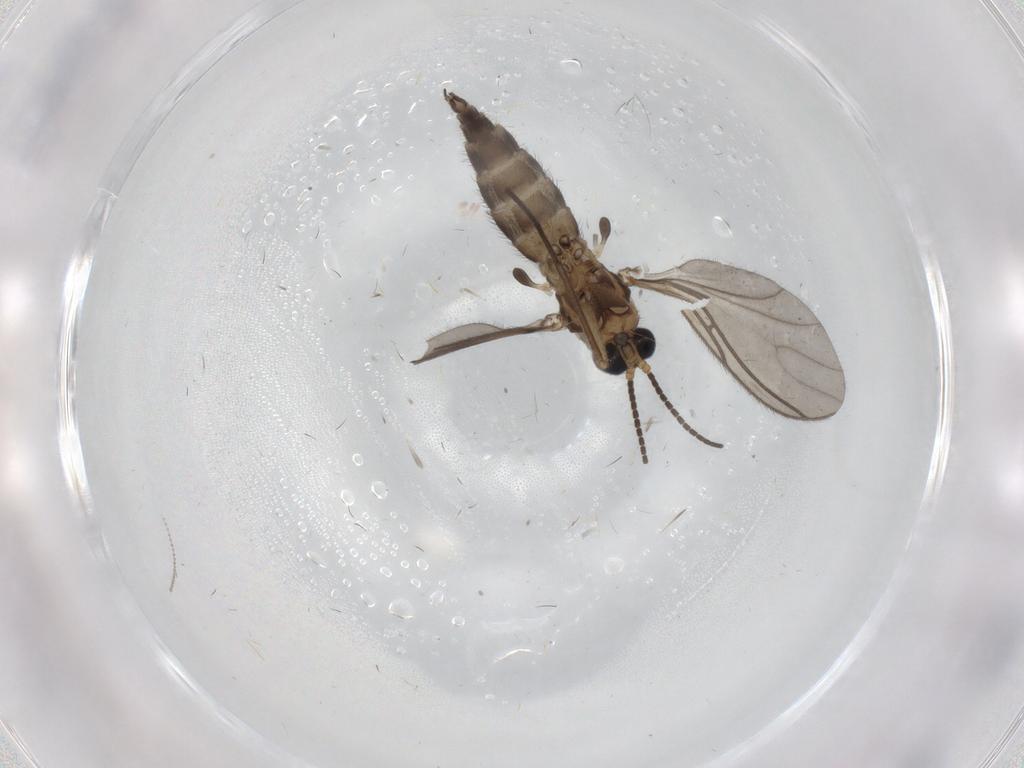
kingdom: Animalia
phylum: Arthropoda
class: Insecta
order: Diptera
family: Sciaridae
